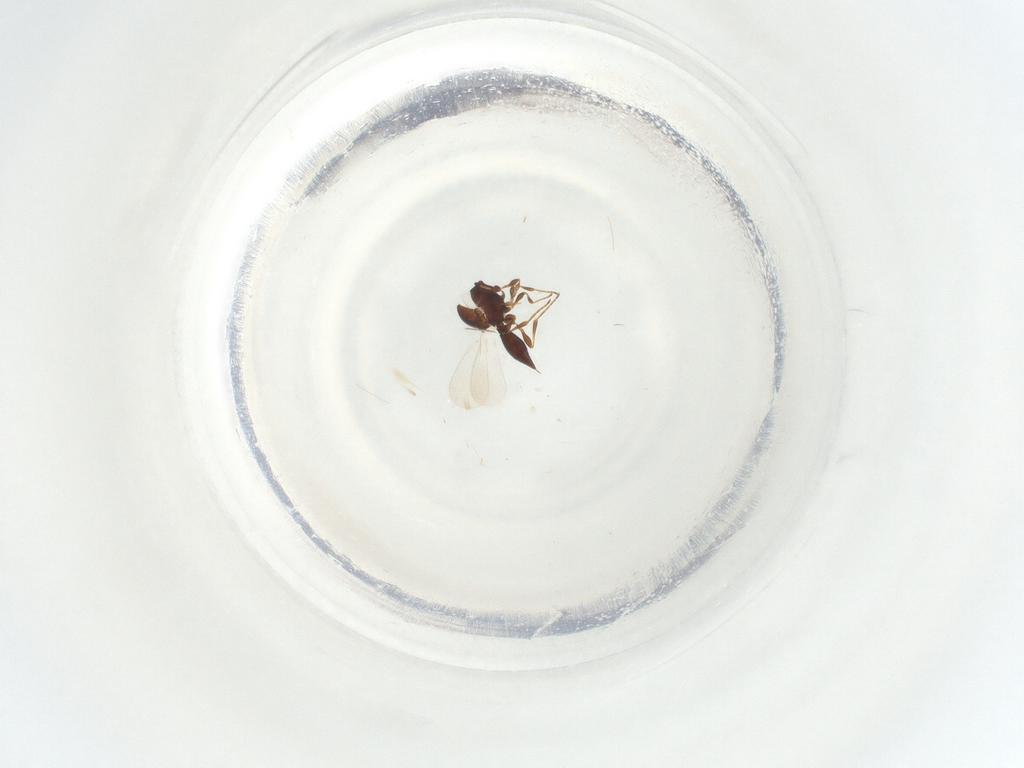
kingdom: Animalia
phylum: Arthropoda
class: Insecta
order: Hymenoptera
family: Platygastridae
